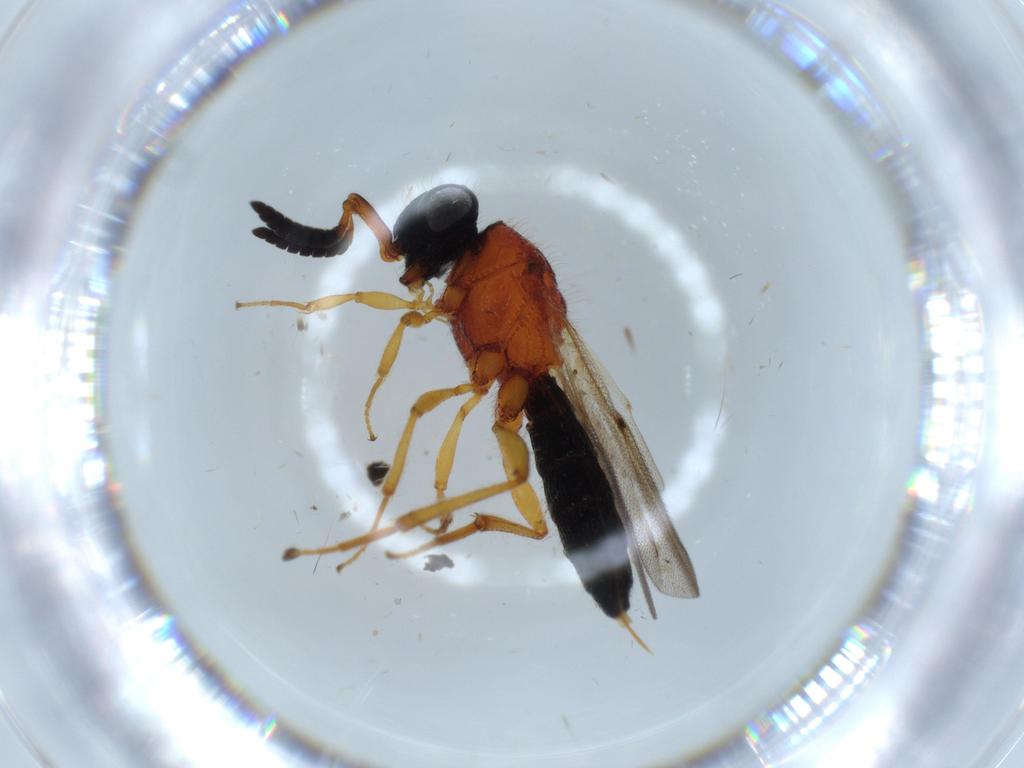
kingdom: Animalia
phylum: Arthropoda
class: Insecta
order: Hymenoptera
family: Scelionidae
